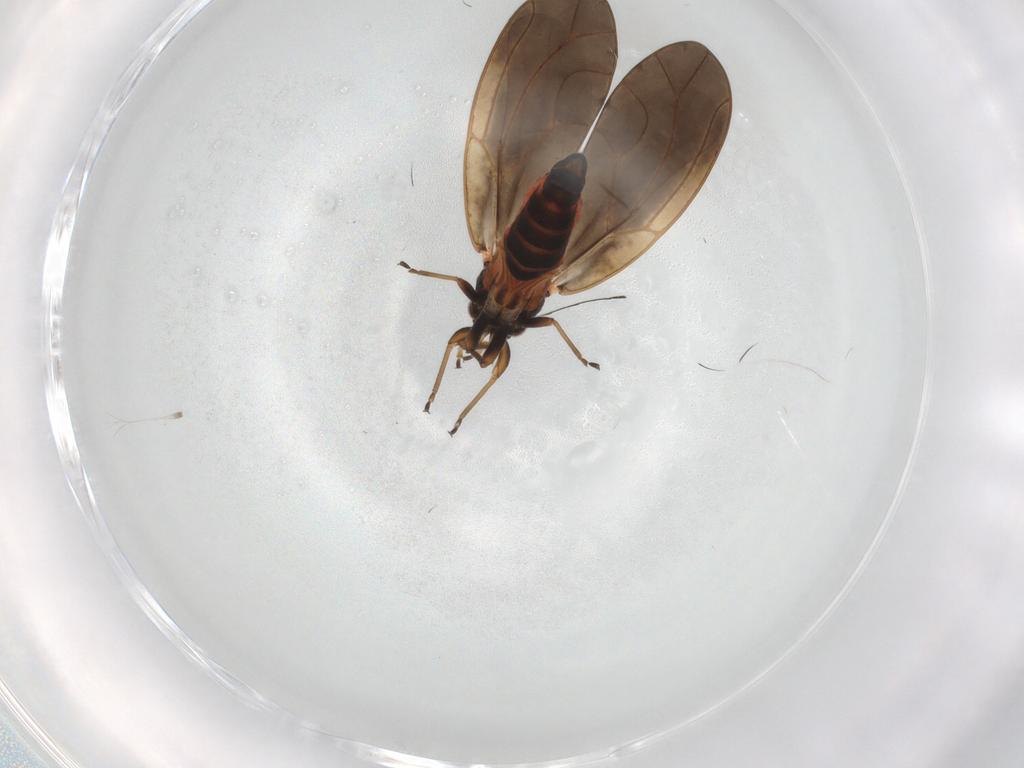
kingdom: Animalia
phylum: Arthropoda
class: Insecta
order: Hemiptera
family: Triozidae
